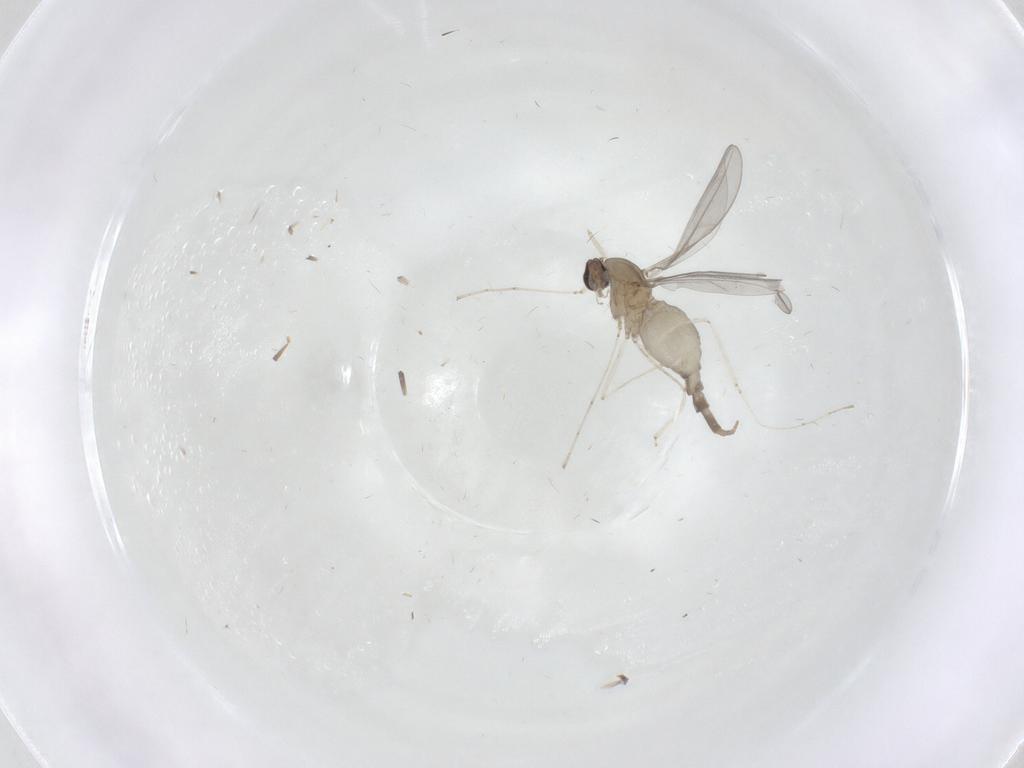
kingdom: Animalia
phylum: Arthropoda
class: Insecta
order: Diptera
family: Cecidomyiidae
